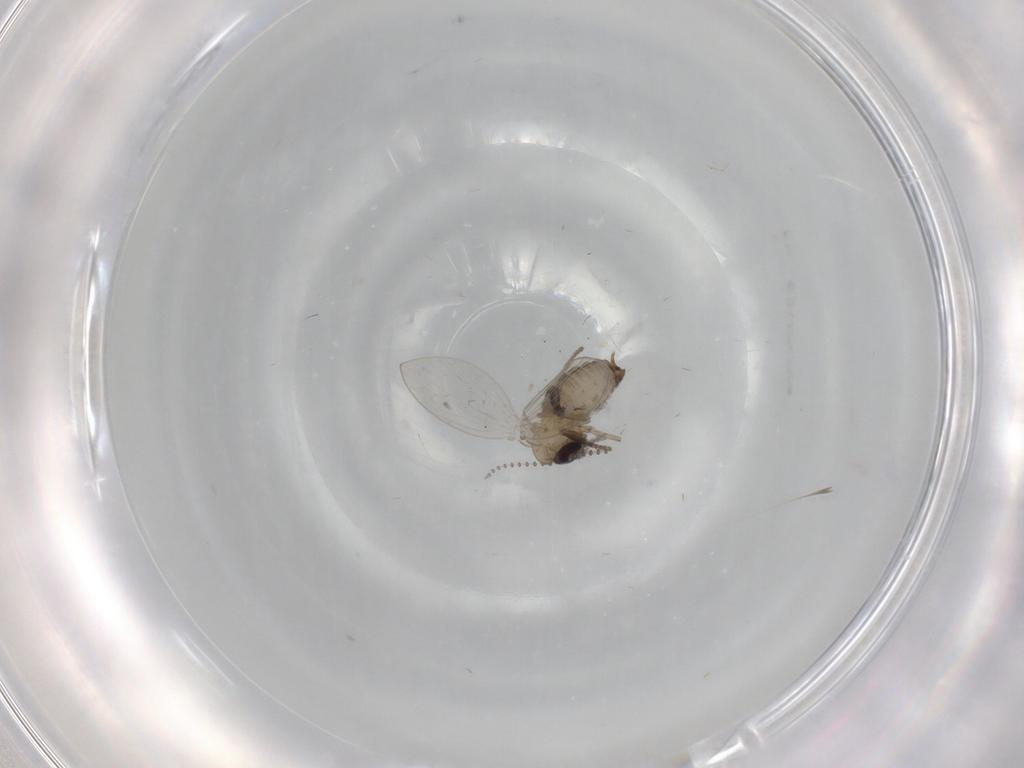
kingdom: Animalia
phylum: Arthropoda
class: Insecta
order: Diptera
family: Psychodidae
